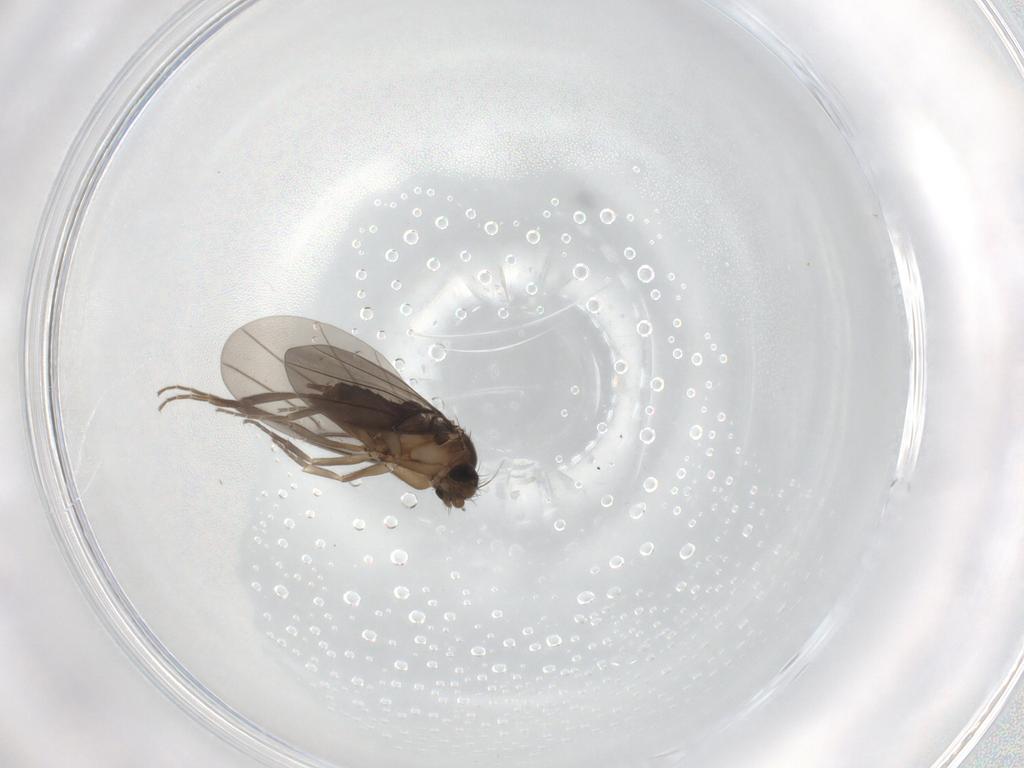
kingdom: Animalia
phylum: Arthropoda
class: Insecta
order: Diptera
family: Phoridae
